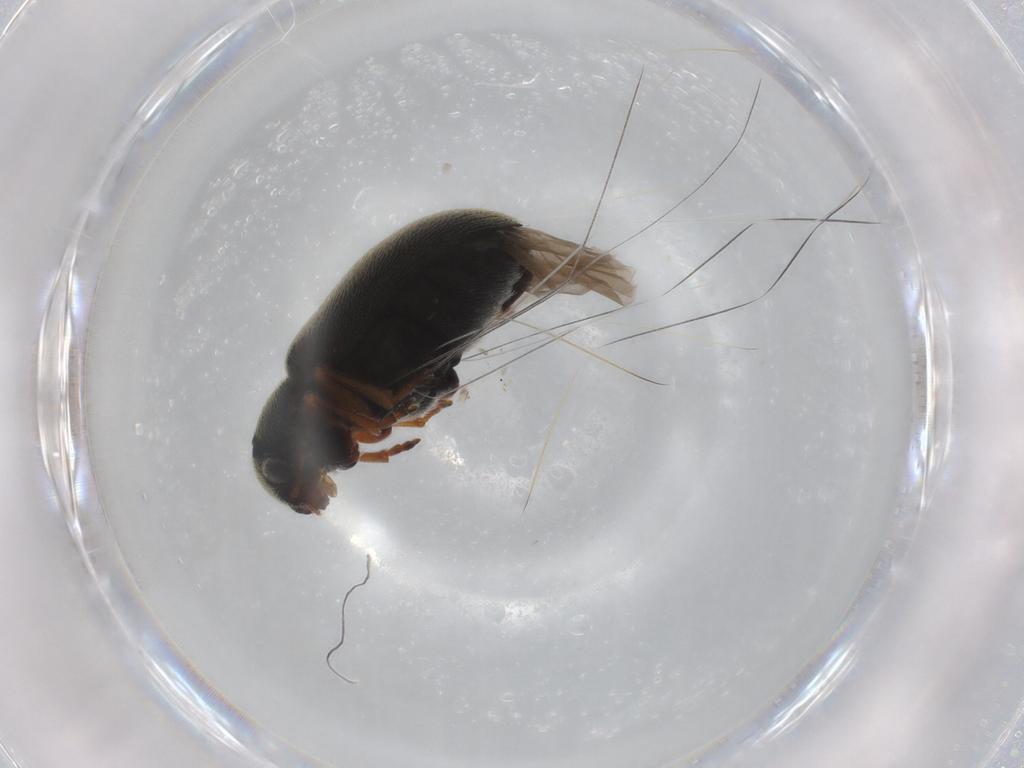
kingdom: Animalia
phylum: Arthropoda
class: Insecta
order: Coleoptera
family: Chrysomelidae
